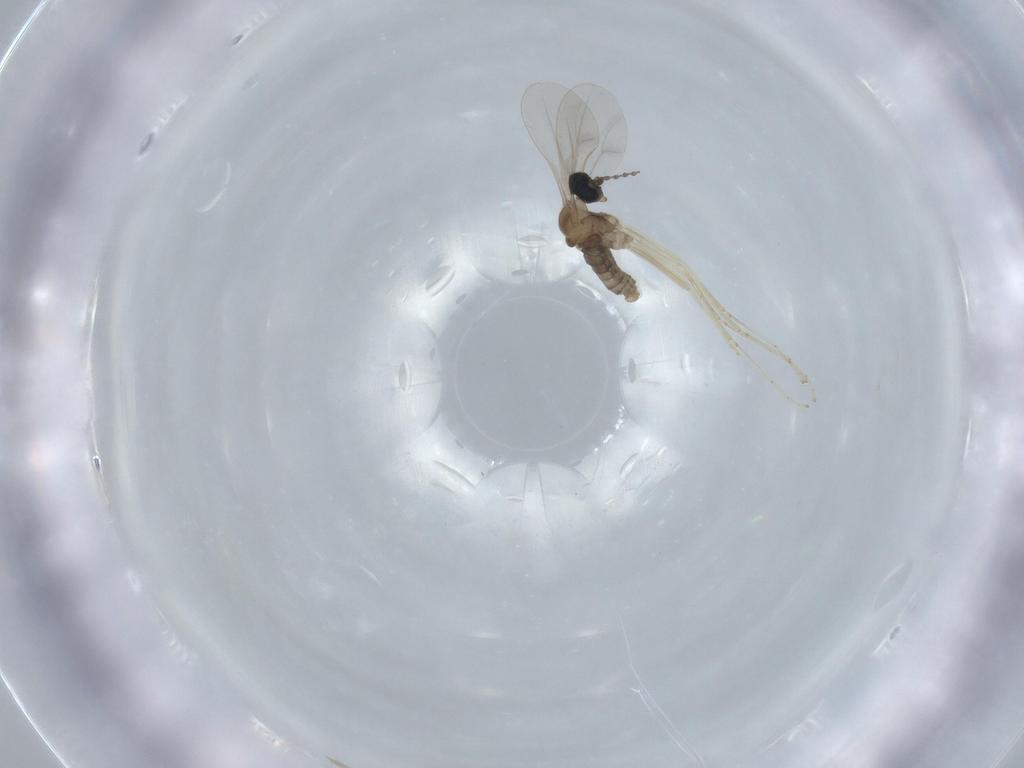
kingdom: Animalia
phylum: Arthropoda
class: Insecta
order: Diptera
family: Cecidomyiidae
